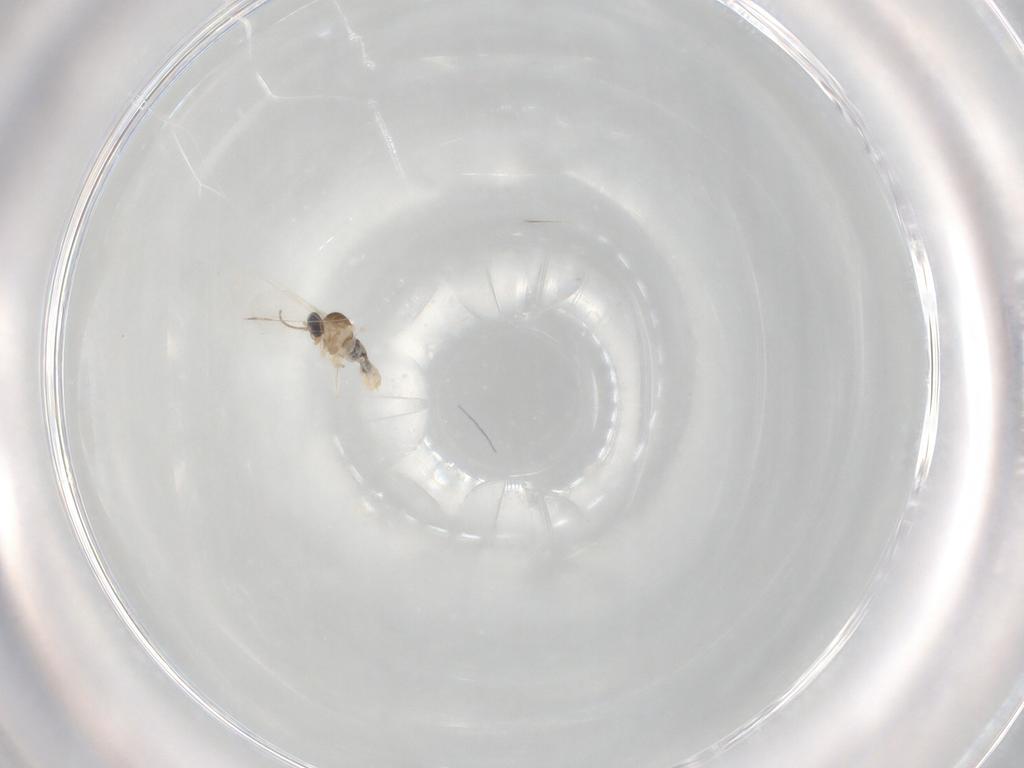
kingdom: Animalia
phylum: Arthropoda
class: Insecta
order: Diptera
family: Cecidomyiidae
